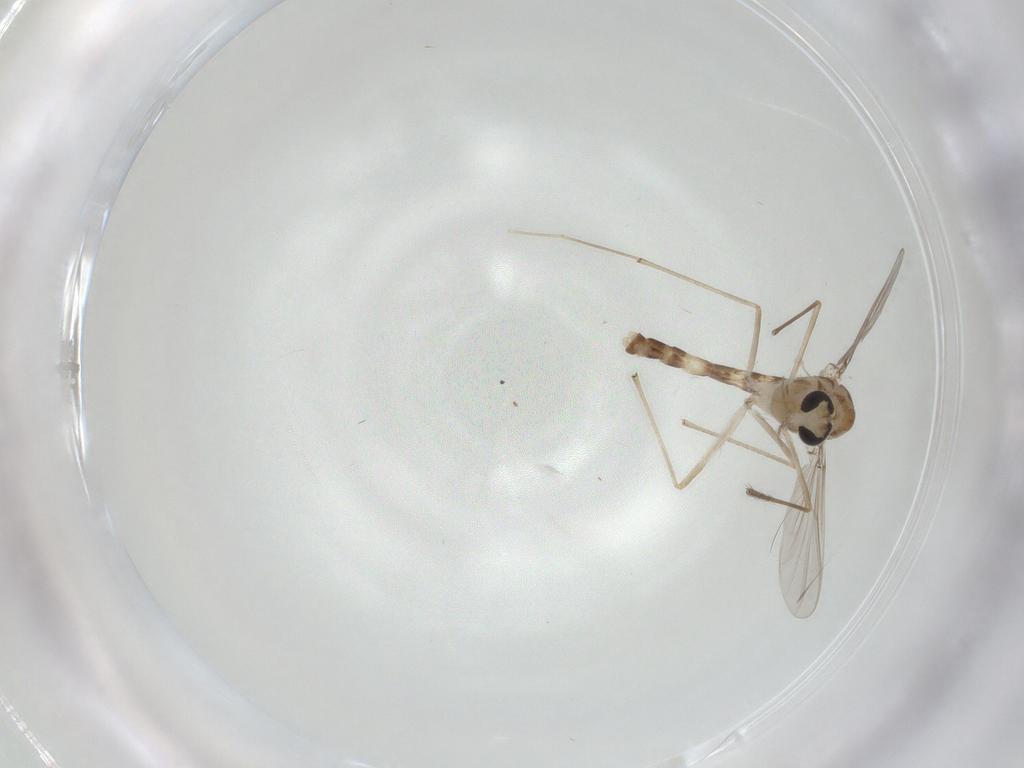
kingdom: Animalia
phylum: Arthropoda
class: Insecta
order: Diptera
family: Chironomidae
